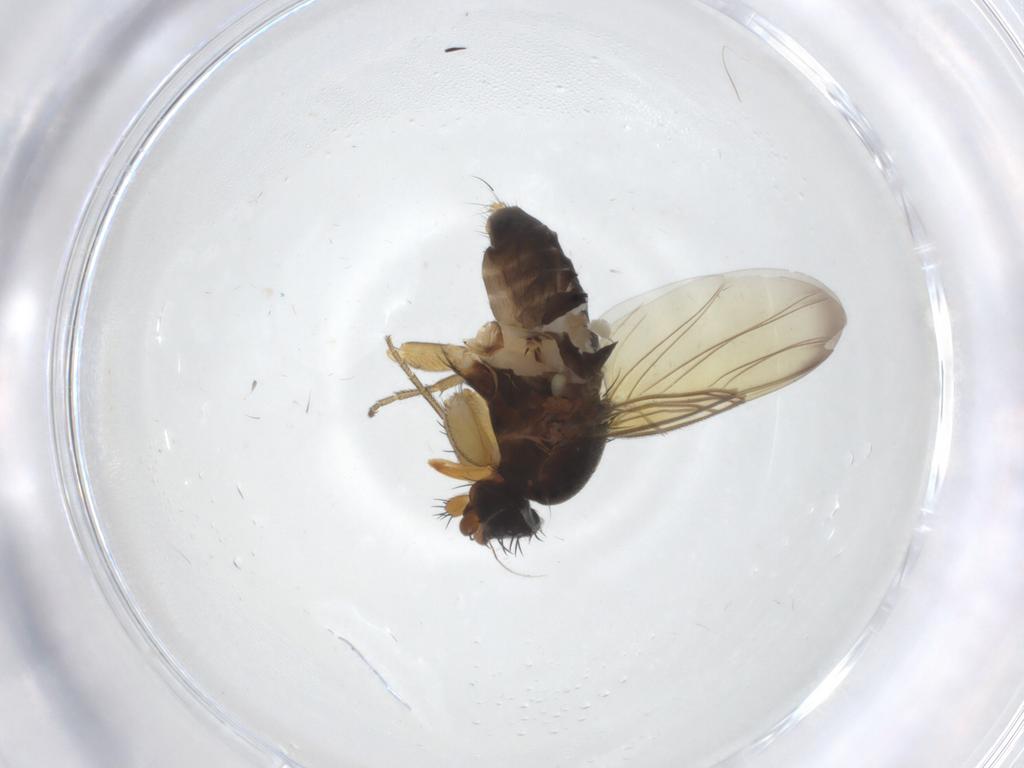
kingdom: Animalia
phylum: Arthropoda
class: Insecta
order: Diptera
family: Phoridae
